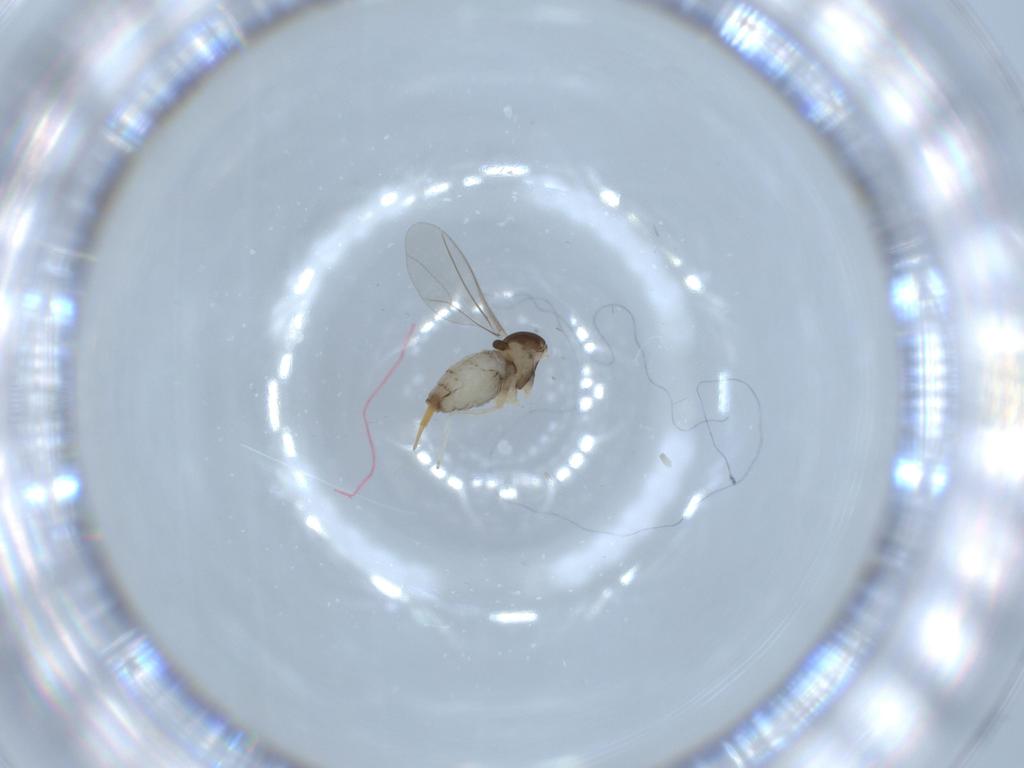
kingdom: Animalia
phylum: Arthropoda
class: Insecta
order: Diptera
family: Cecidomyiidae
